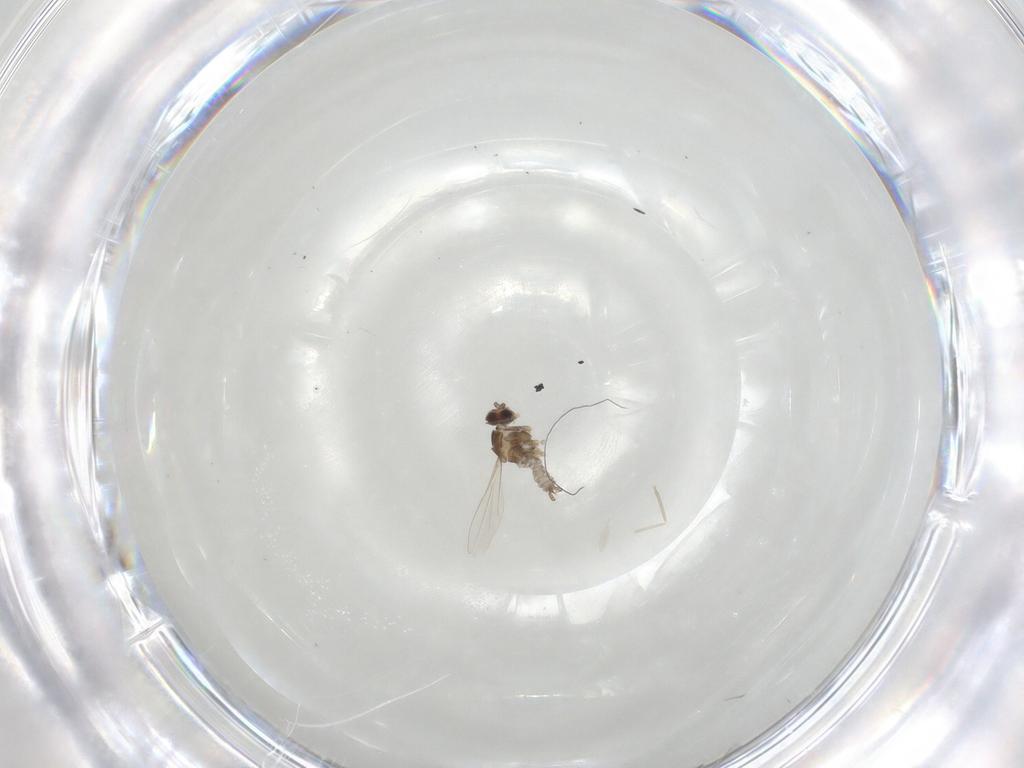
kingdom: Animalia
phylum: Arthropoda
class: Insecta
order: Diptera
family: Cecidomyiidae
